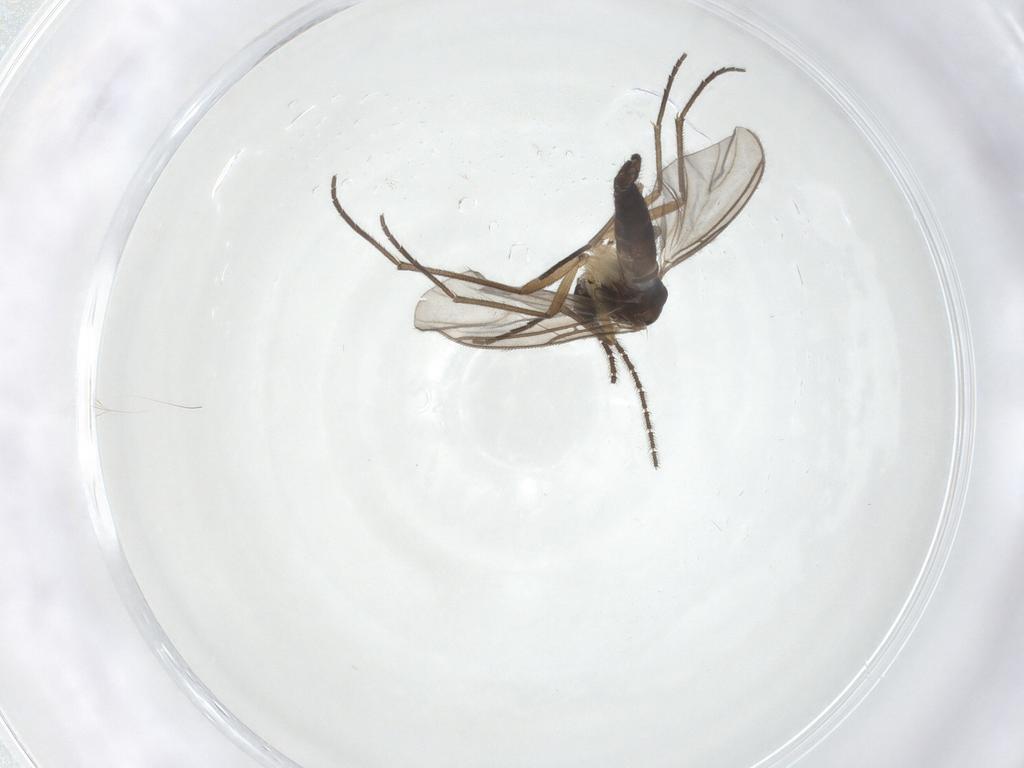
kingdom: Animalia
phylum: Arthropoda
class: Insecta
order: Diptera
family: Sciaridae
